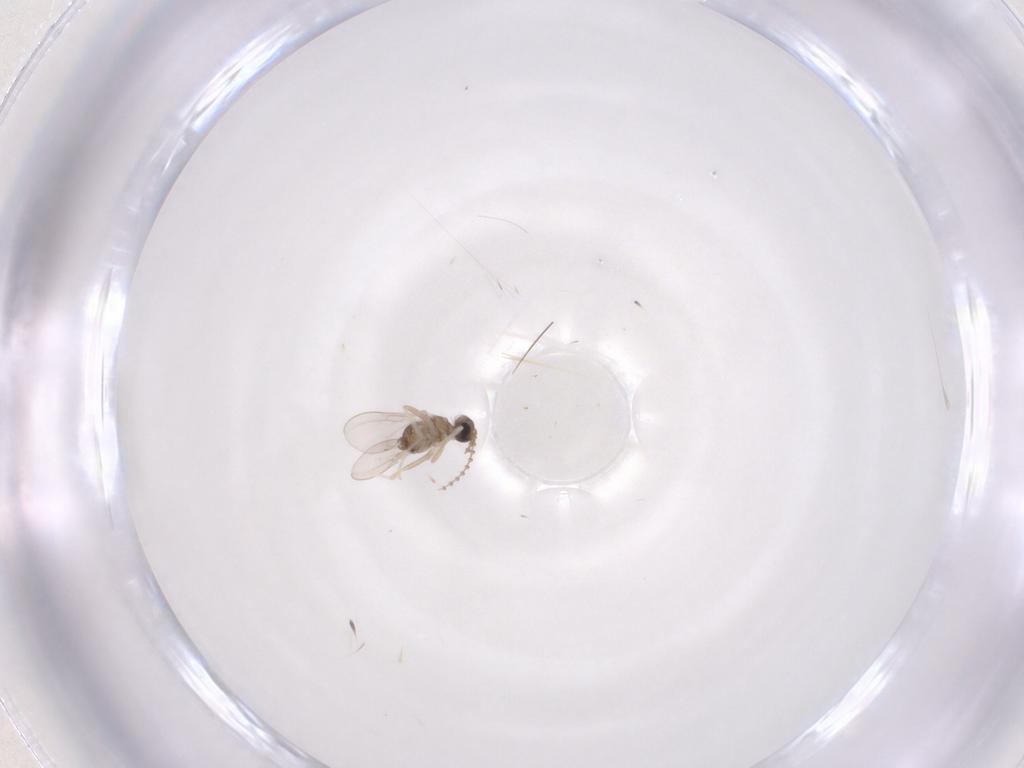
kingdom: Animalia
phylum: Arthropoda
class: Insecta
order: Diptera
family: Cecidomyiidae
